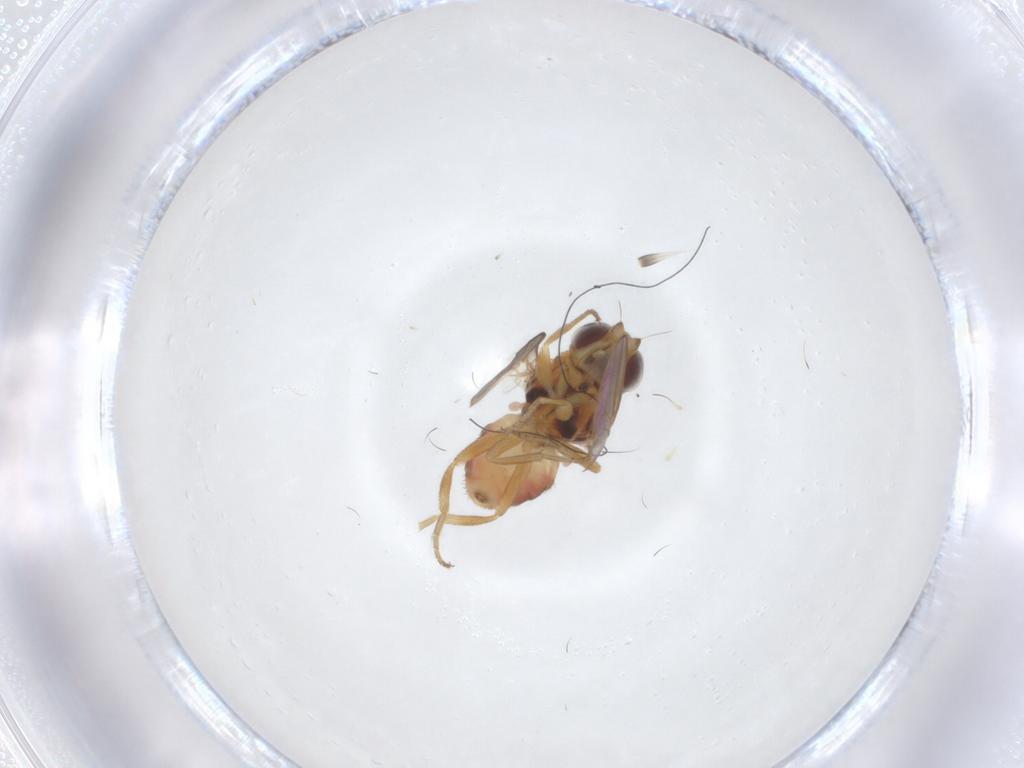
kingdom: Animalia
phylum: Arthropoda
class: Insecta
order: Diptera
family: Chloropidae
